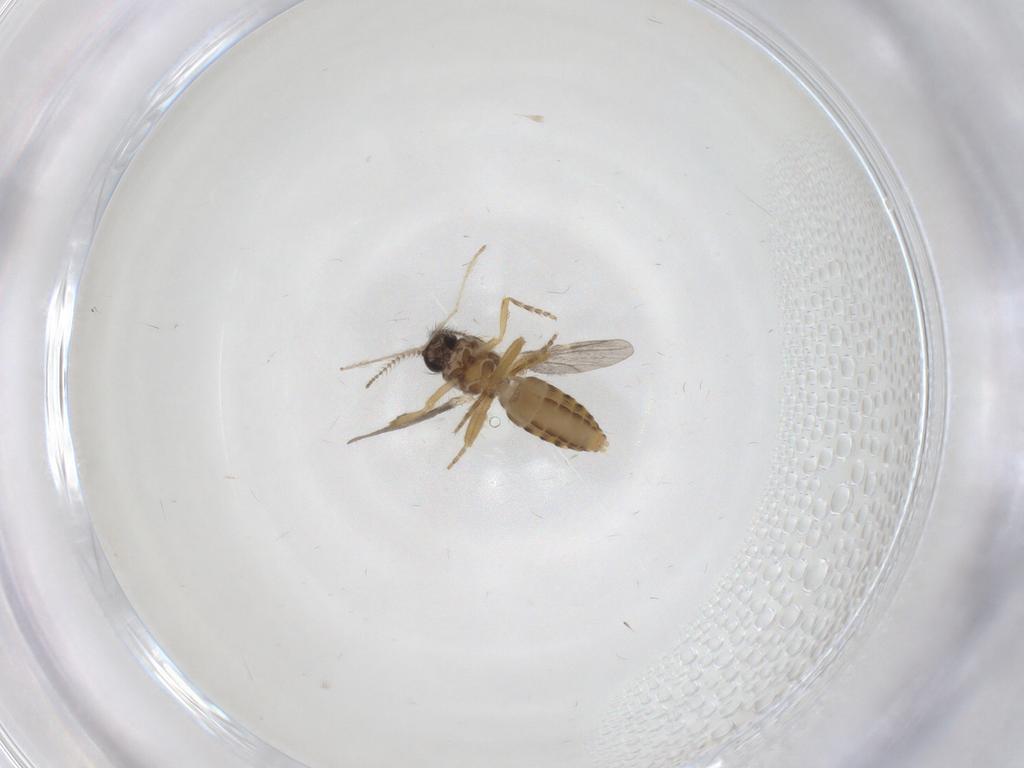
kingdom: Animalia
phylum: Arthropoda
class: Insecta
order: Diptera
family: Ceratopogonidae
